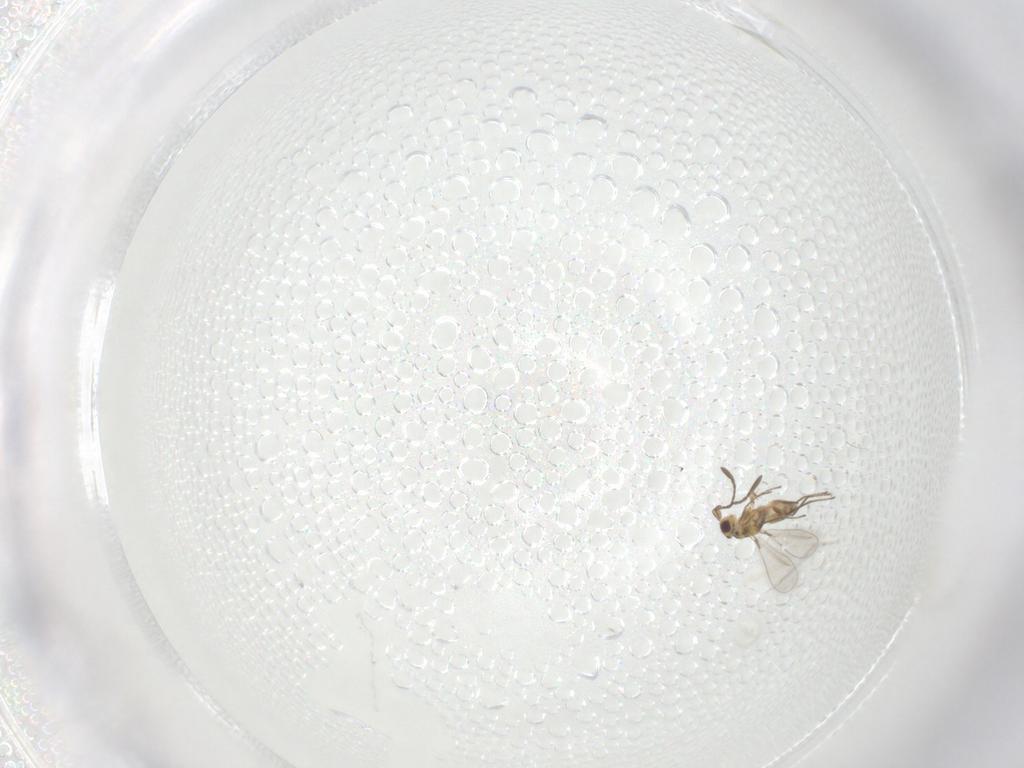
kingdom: Animalia
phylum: Arthropoda
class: Insecta
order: Hymenoptera
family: Mymaridae
